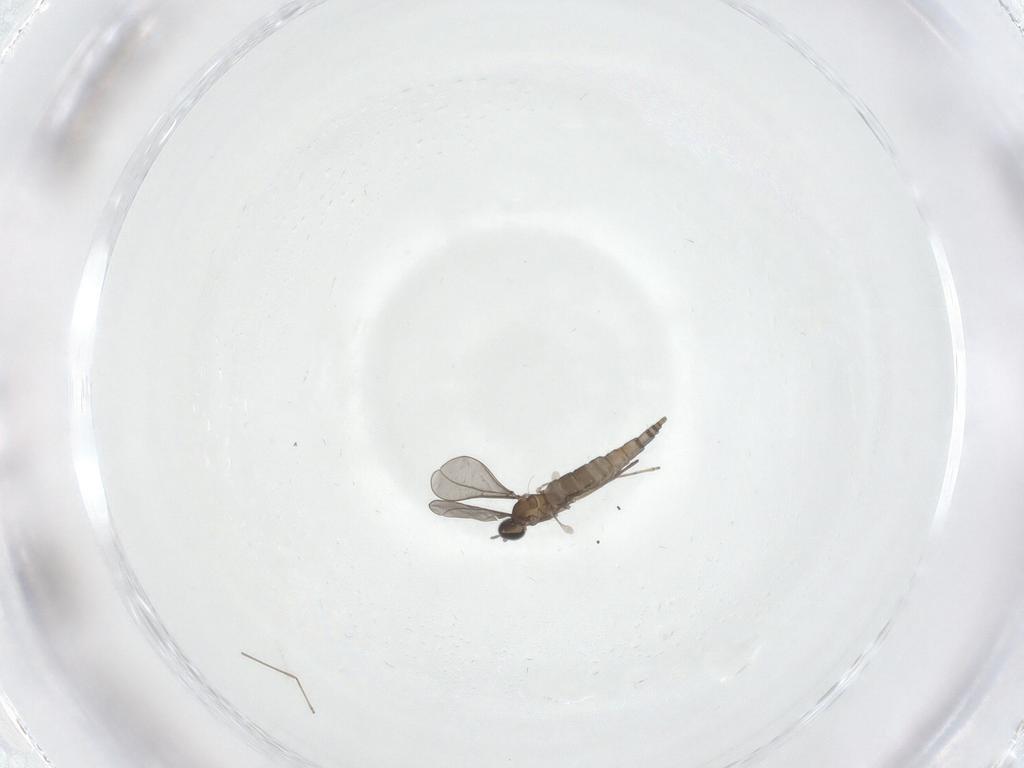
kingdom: Animalia
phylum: Arthropoda
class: Insecta
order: Diptera
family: Cecidomyiidae
